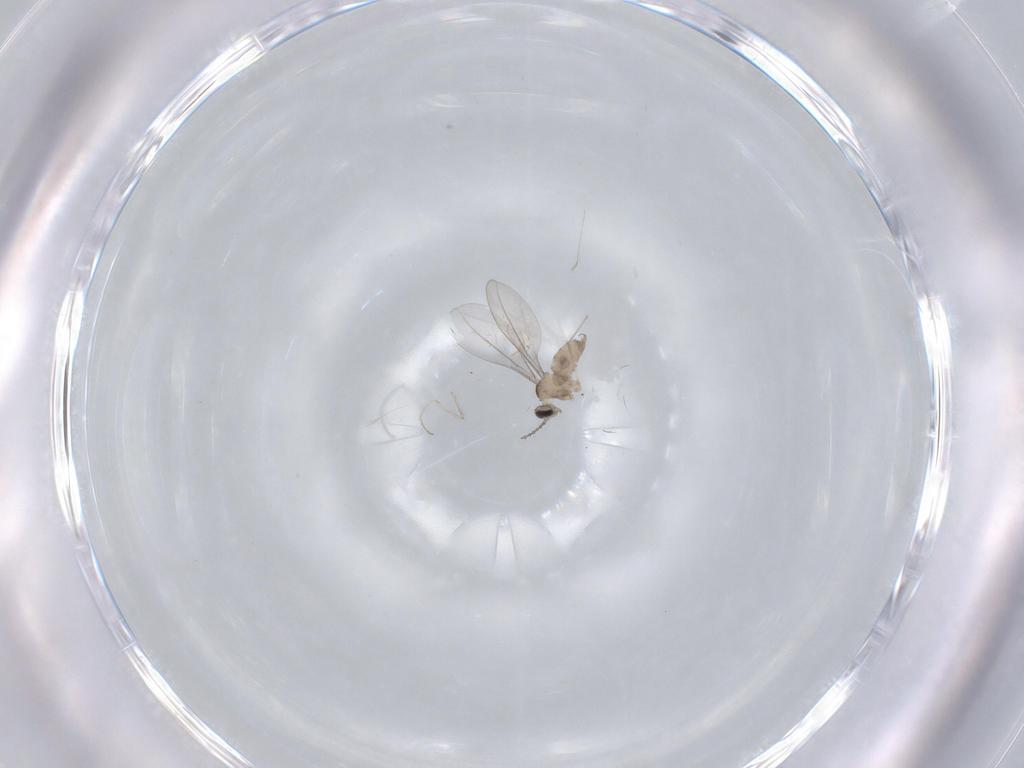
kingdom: Animalia
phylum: Arthropoda
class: Insecta
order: Diptera
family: Cecidomyiidae
